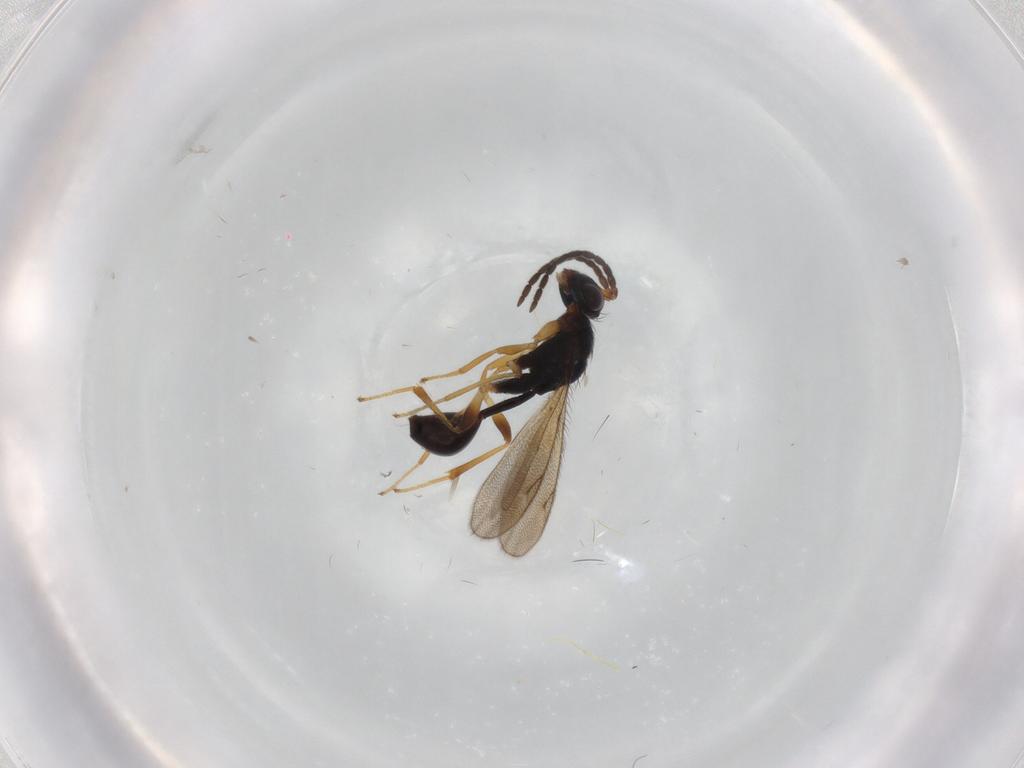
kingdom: Animalia
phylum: Arthropoda
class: Insecta
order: Hymenoptera
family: Diparidae
